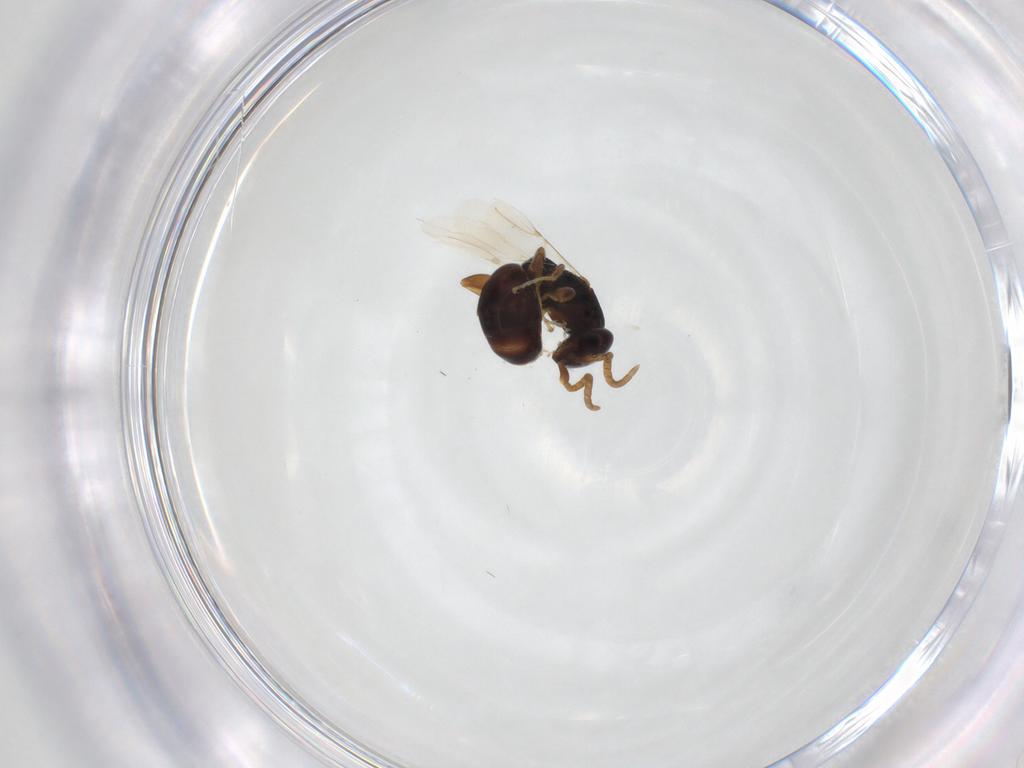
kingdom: Animalia
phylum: Arthropoda
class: Insecta
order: Hymenoptera
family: Bethylidae
